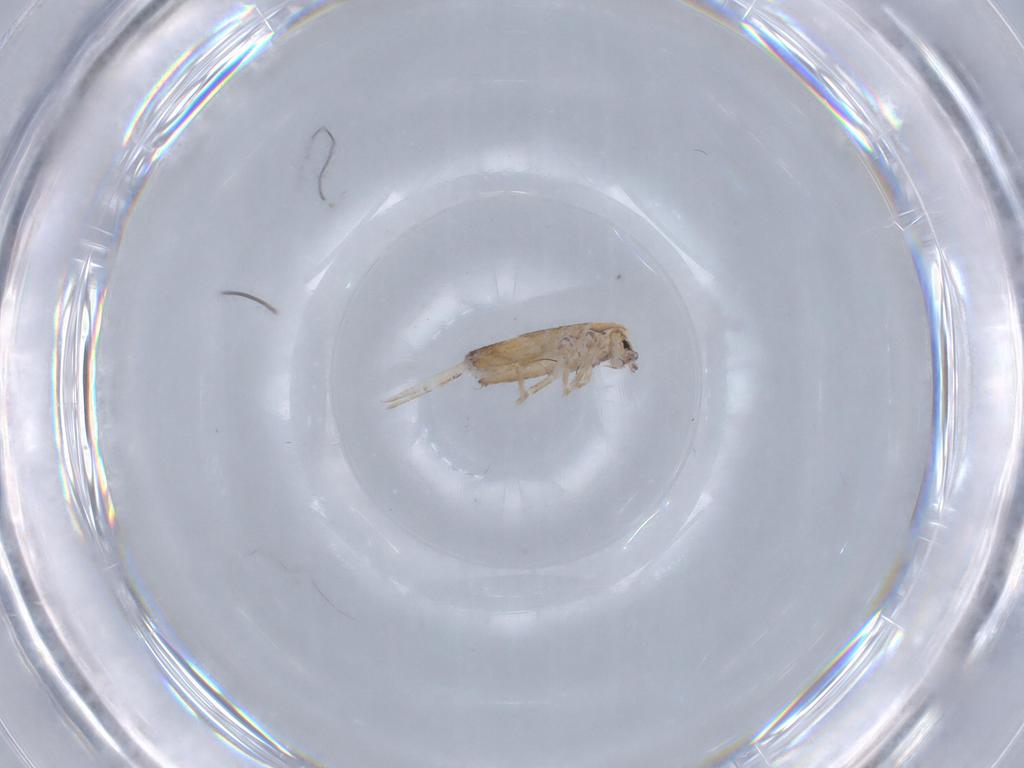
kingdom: Animalia
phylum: Arthropoda
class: Collembola
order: Entomobryomorpha
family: Entomobryidae
